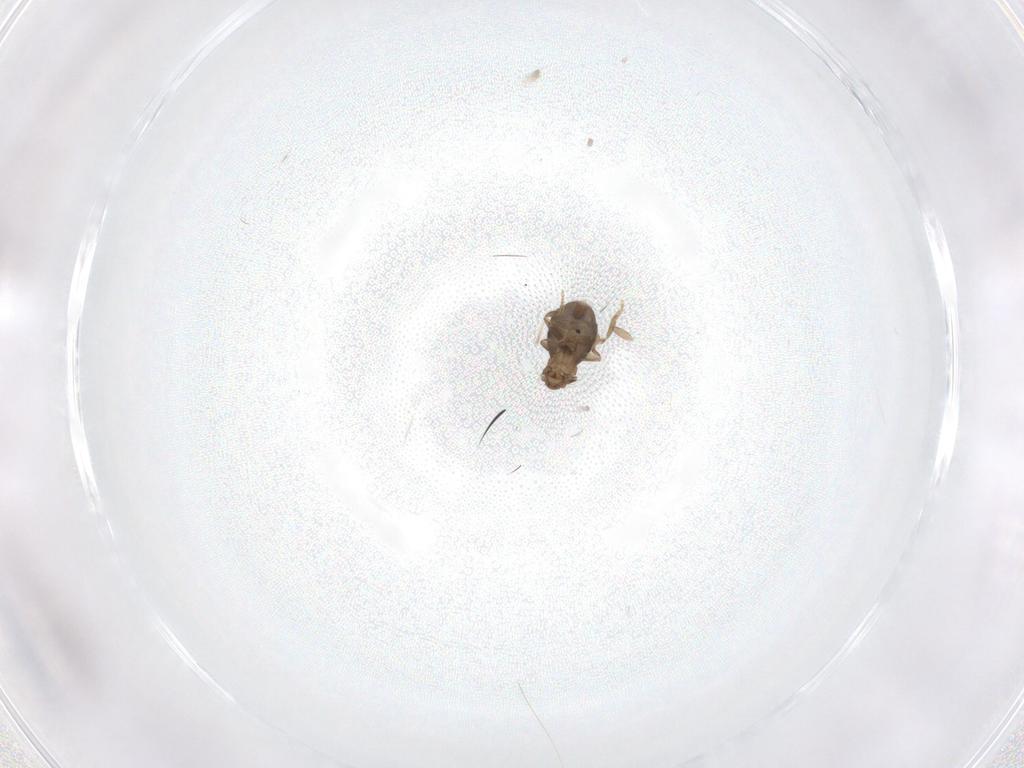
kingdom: Animalia
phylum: Arthropoda
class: Insecta
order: Diptera
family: Tipulidae
